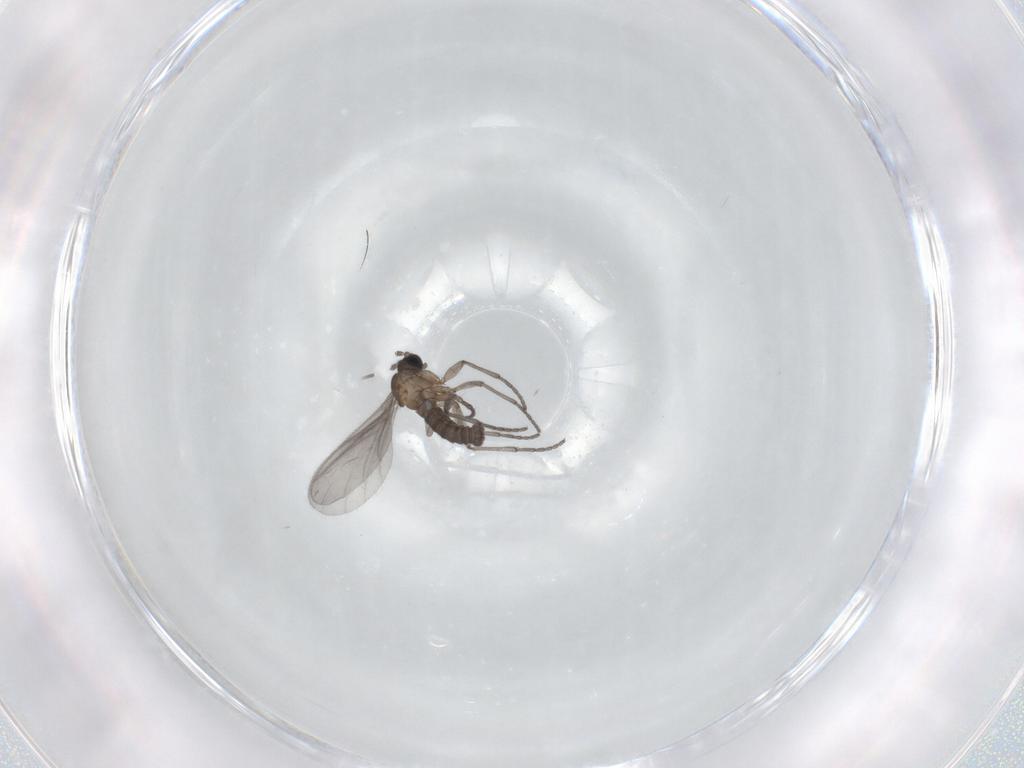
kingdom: Animalia
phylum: Arthropoda
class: Insecta
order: Diptera
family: Sciaridae
